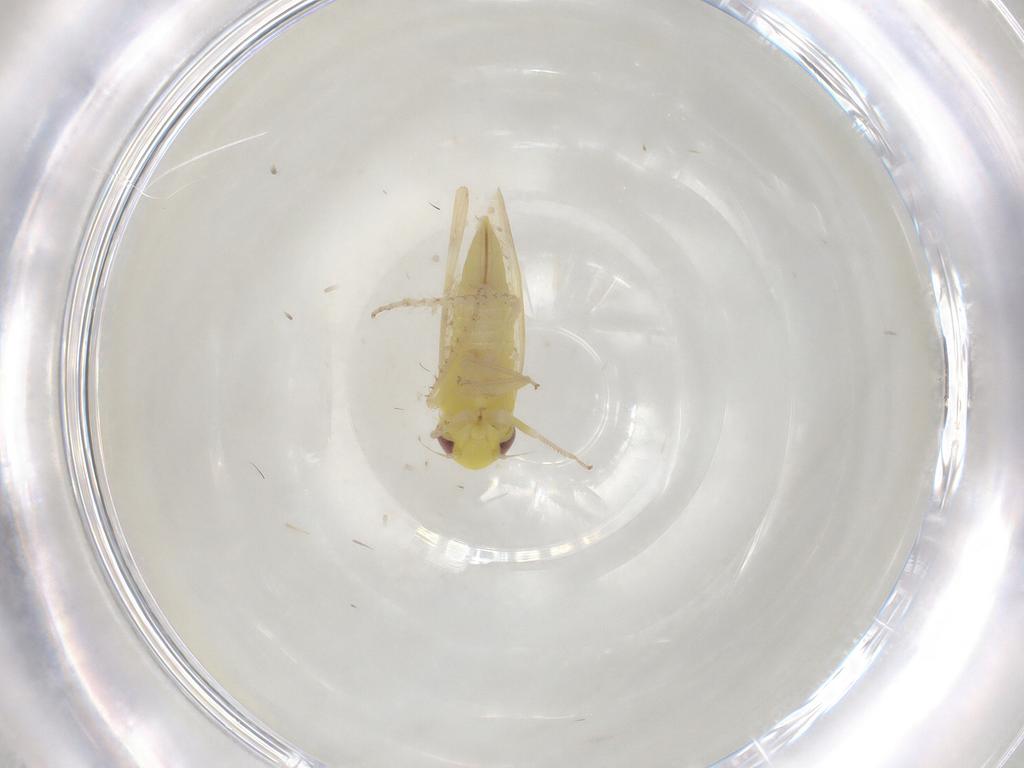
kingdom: Animalia
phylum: Arthropoda
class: Insecta
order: Hemiptera
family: Cicadellidae
